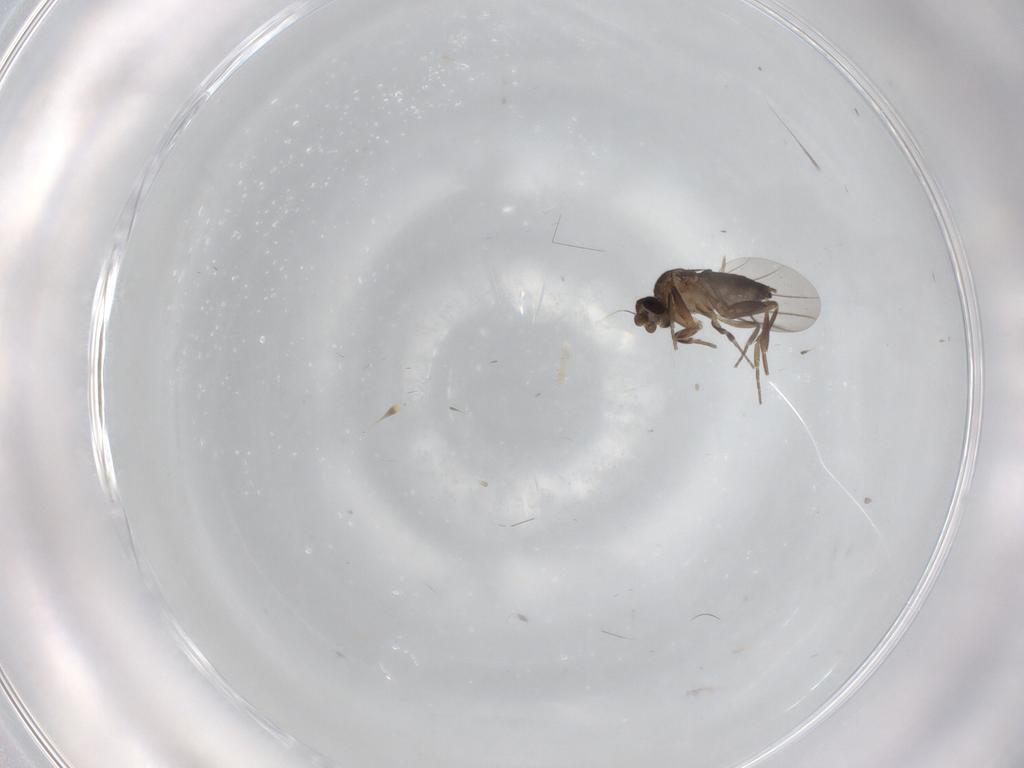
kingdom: Animalia
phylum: Arthropoda
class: Insecta
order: Diptera
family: Phoridae
